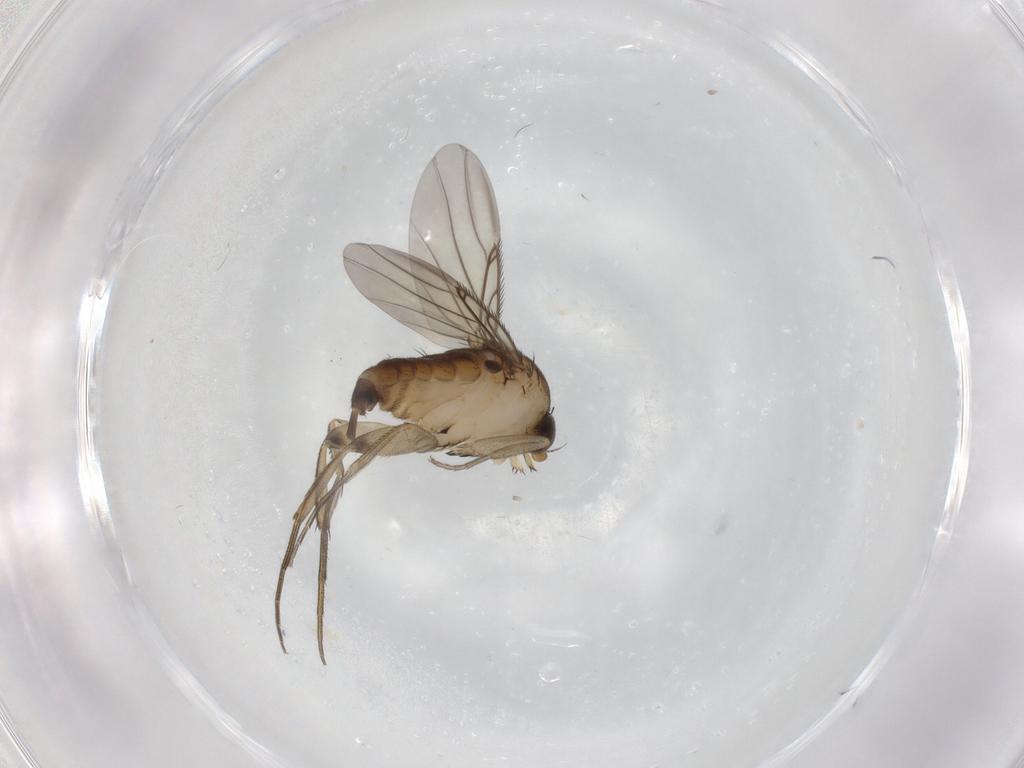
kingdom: Animalia
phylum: Arthropoda
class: Insecta
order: Diptera
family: Phoridae
